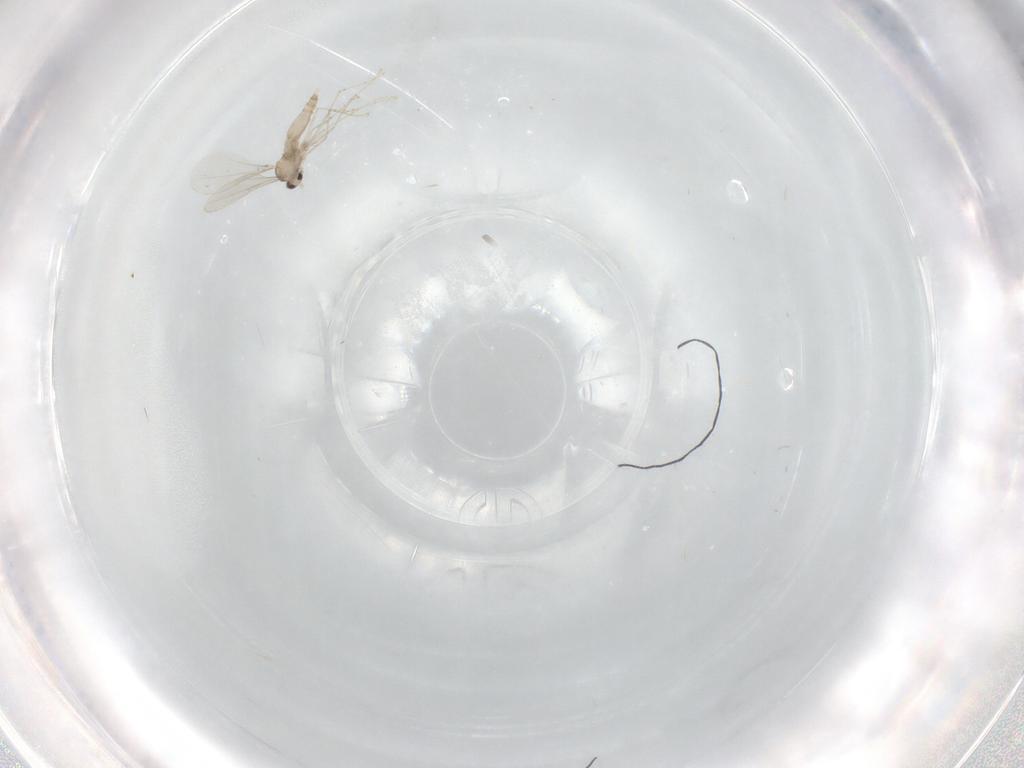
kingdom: Animalia
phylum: Arthropoda
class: Insecta
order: Diptera
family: Cecidomyiidae
